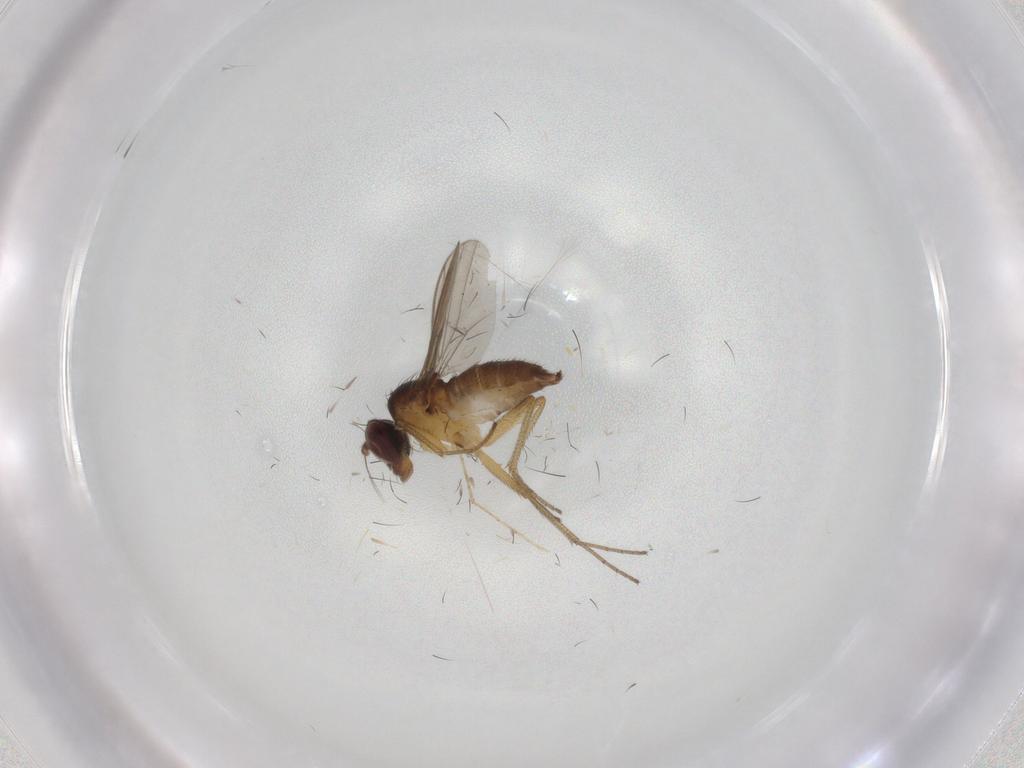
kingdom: Animalia
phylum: Arthropoda
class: Insecta
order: Diptera
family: Dolichopodidae
